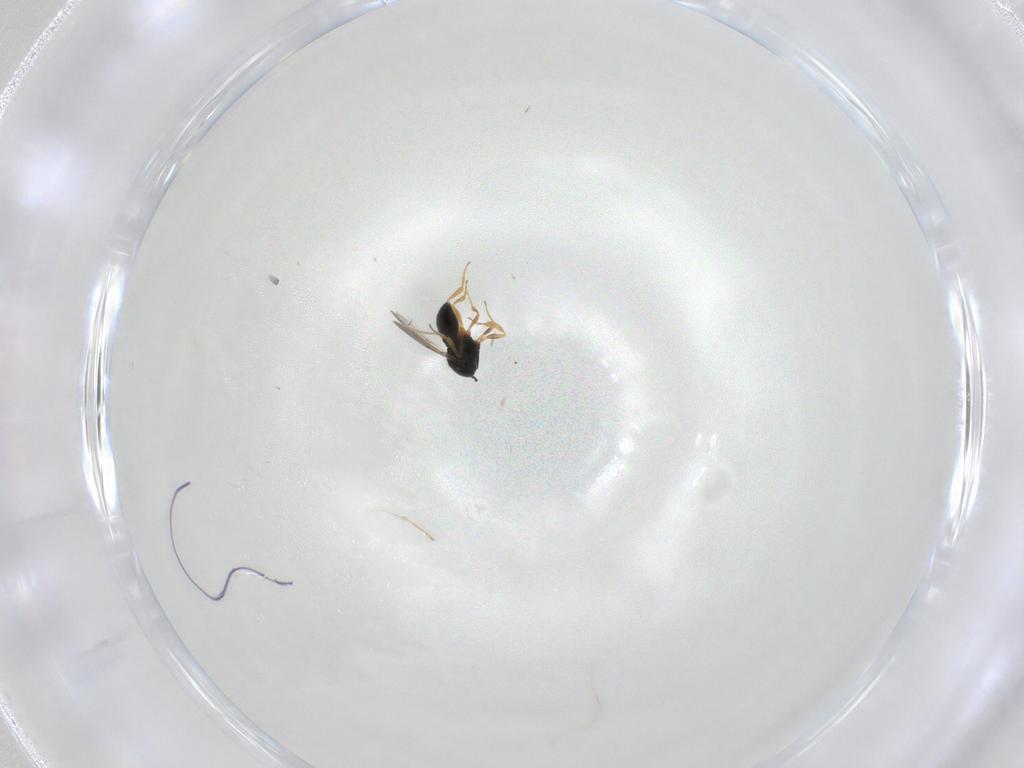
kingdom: Animalia
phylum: Arthropoda
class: Insecta
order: Hymenoptera
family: Scelionidae
